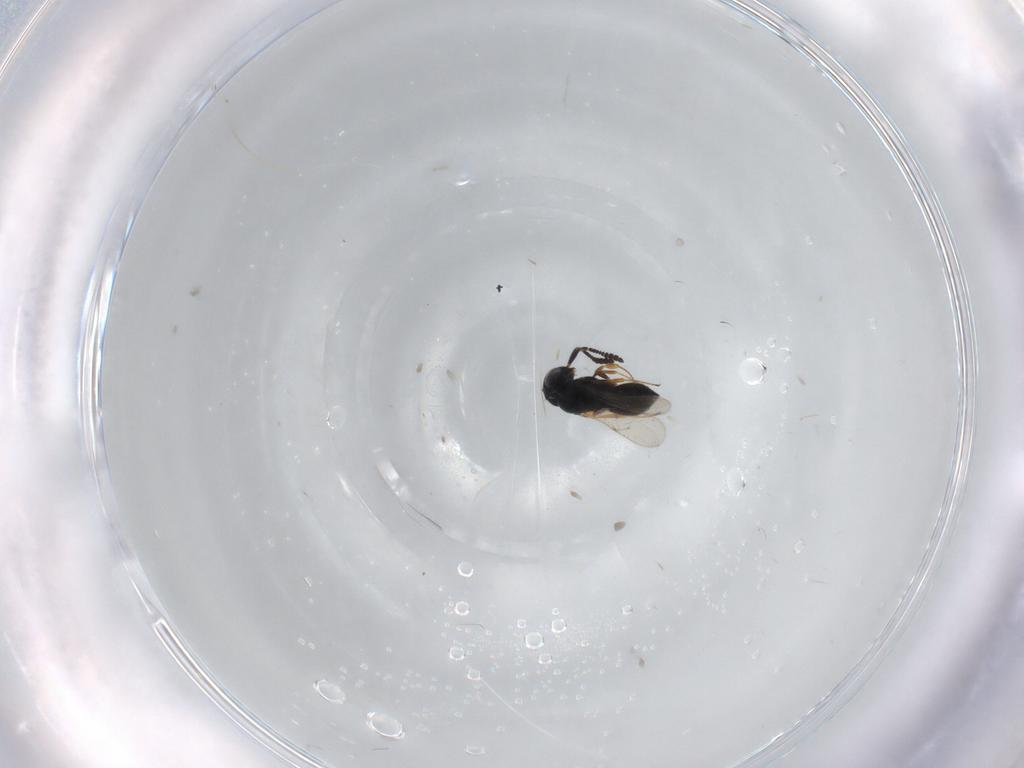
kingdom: Animalia
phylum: Arthropoda
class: Insecta
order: Hymenoptera
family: Scelionidae
